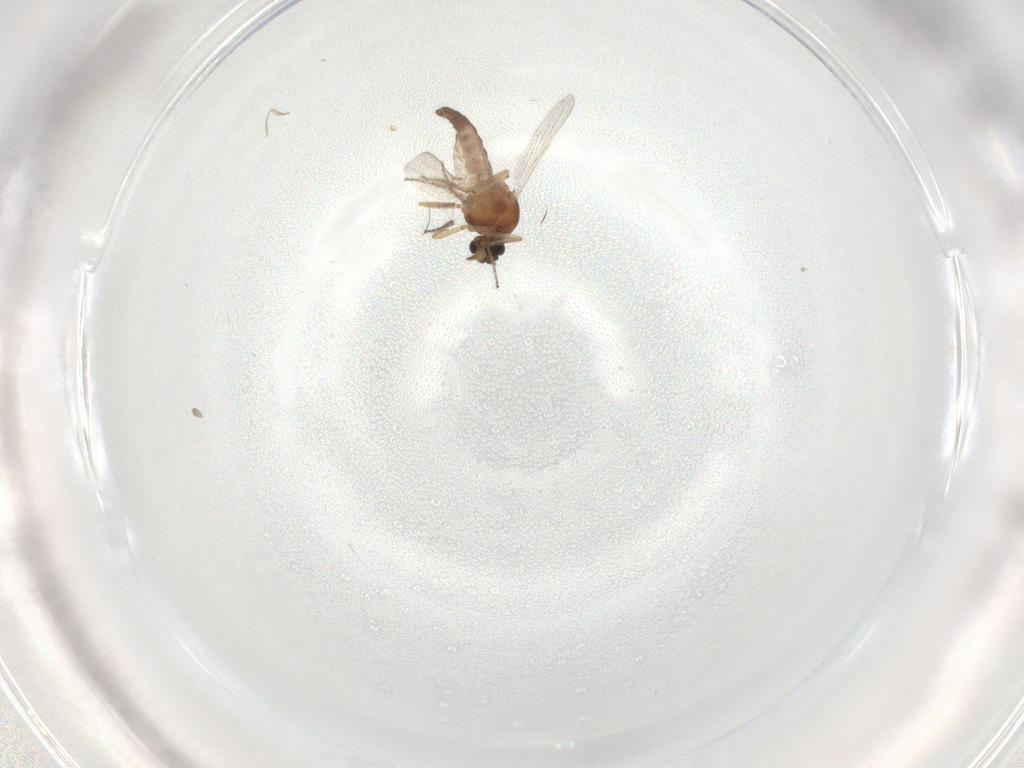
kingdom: Animalia
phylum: Arthropoda
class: Insecta
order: Diptera
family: Ceratopogonidae
